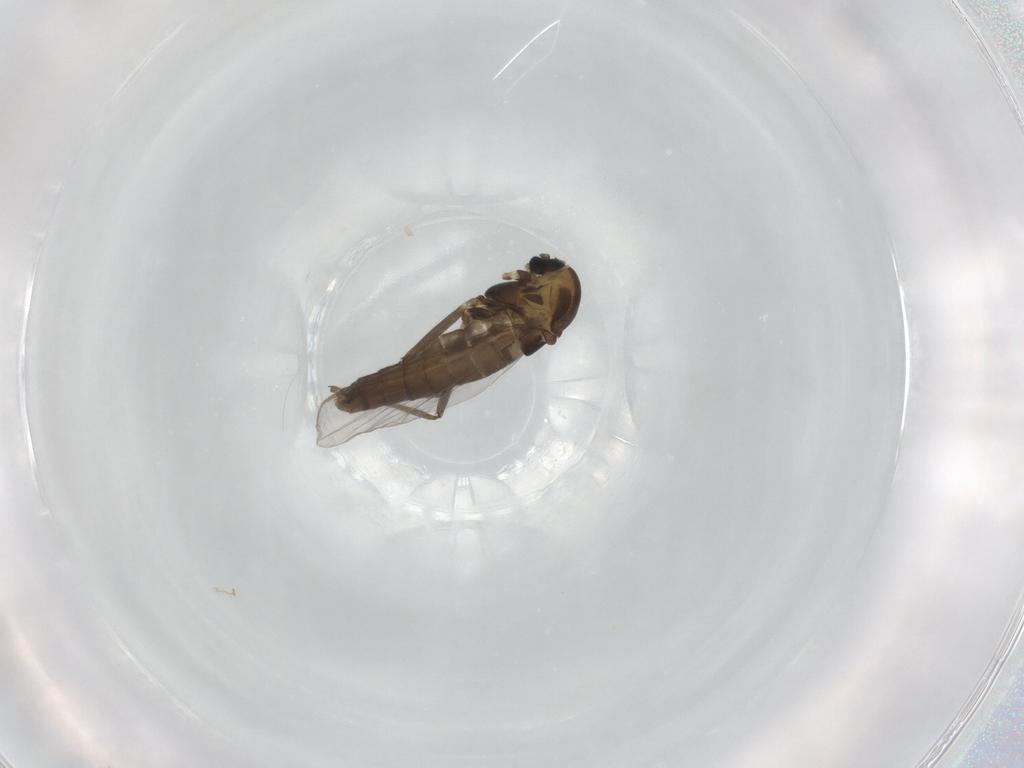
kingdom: Animalia
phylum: Arthropoda
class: Insecta
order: Diptera
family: Chironomidae
